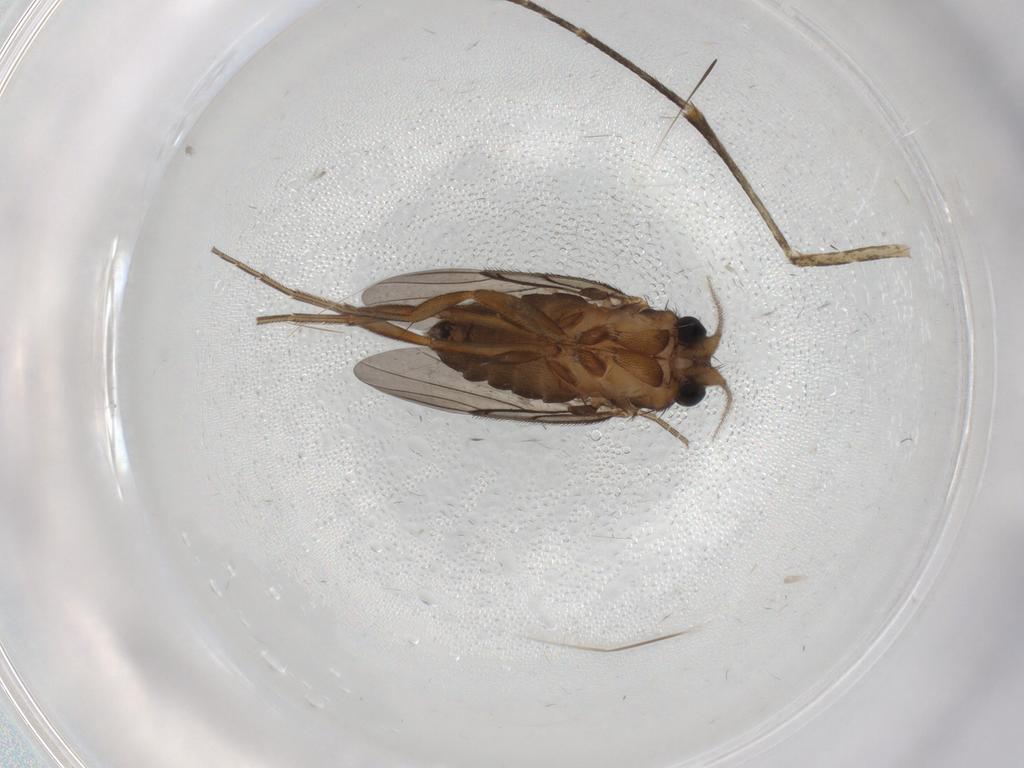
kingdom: Animalia
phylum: Arthropoda
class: Insecta
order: Diptera
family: Culicidae
